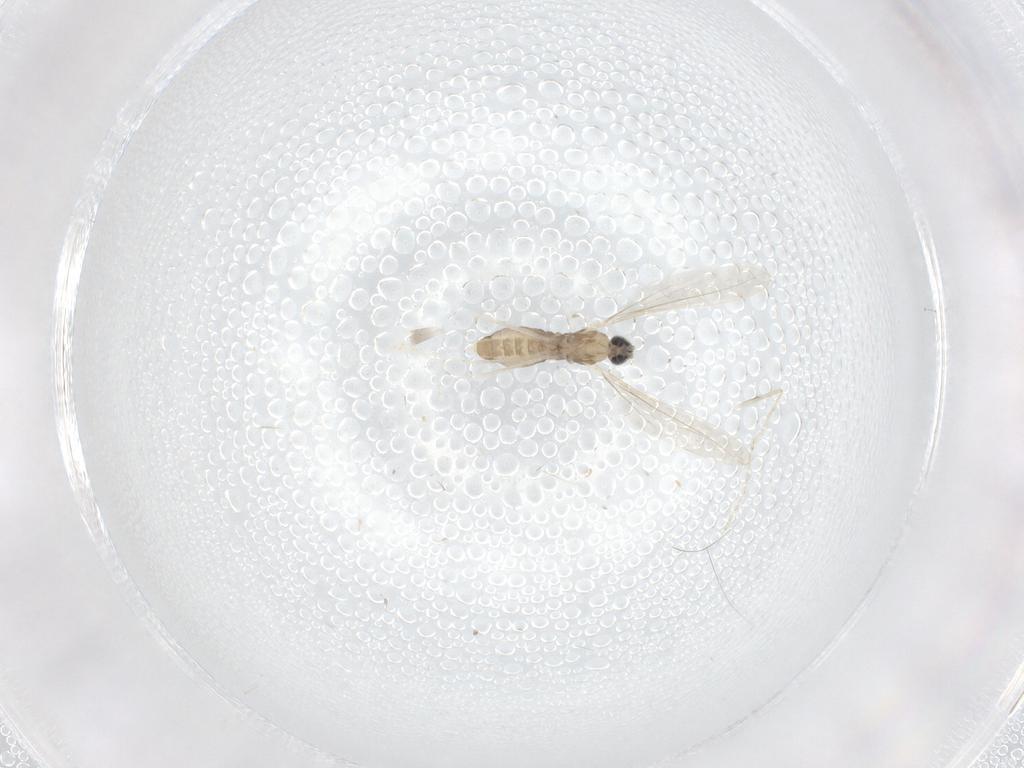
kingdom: Animalia
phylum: Arthropoda
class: Insecta
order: Diptera
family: Cecidomyiidae
